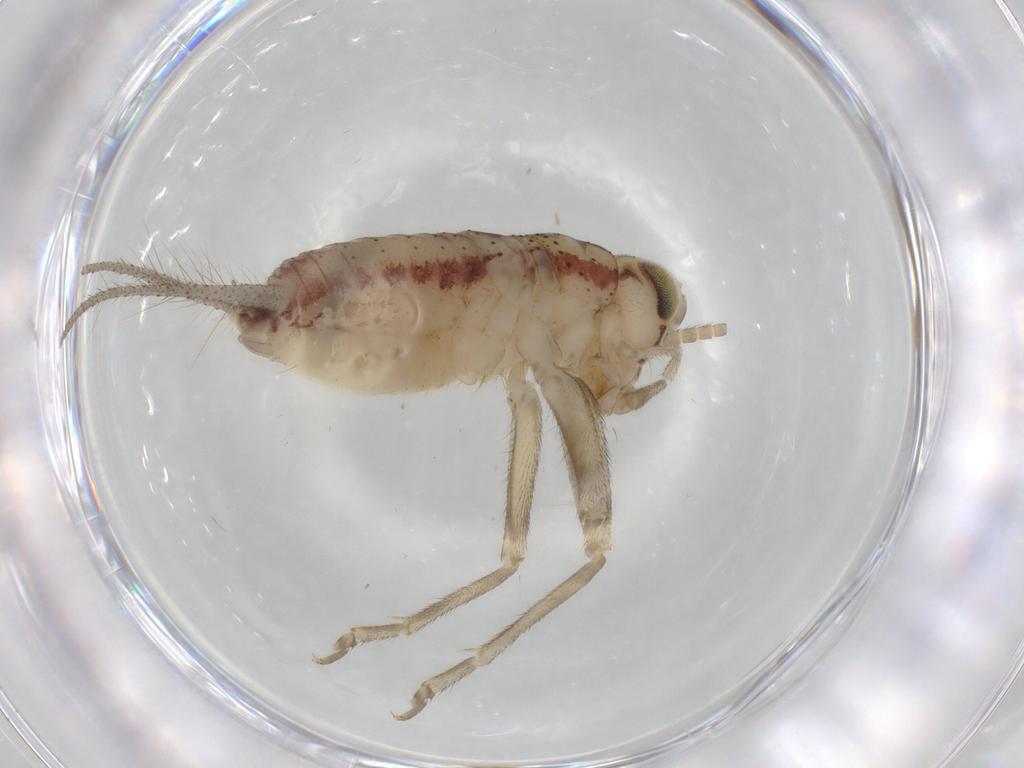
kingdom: Animalia
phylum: Arthropoda
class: Insecta
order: Orthoptera
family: Trigonidiidae
